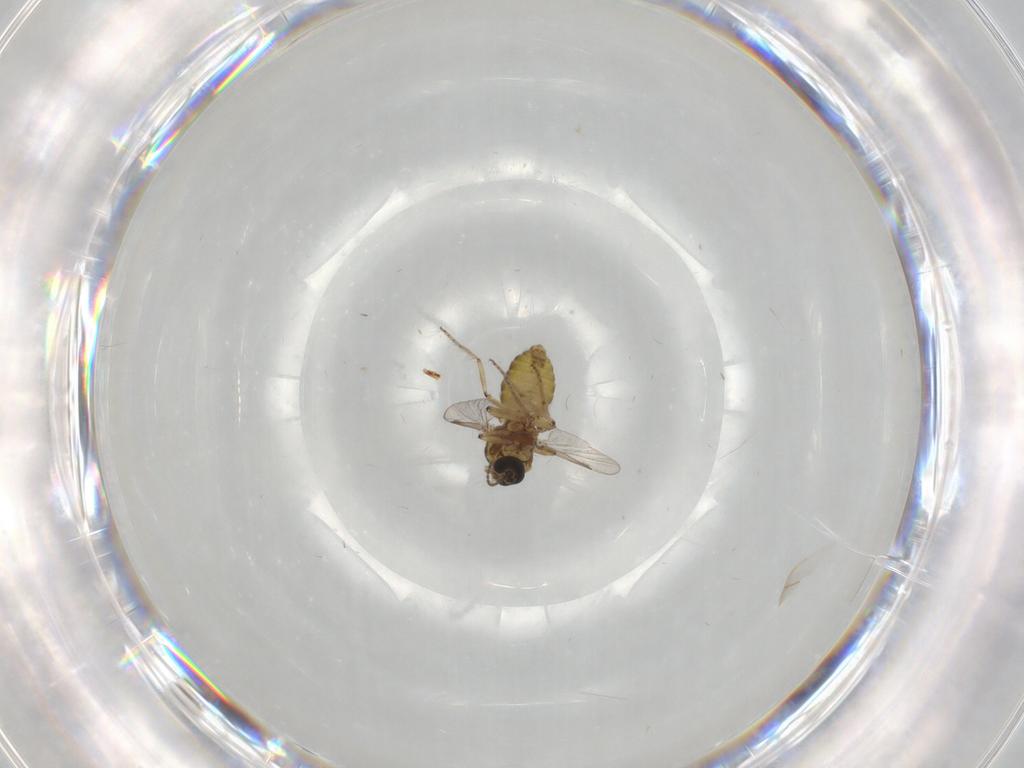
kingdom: Animalia
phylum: Arthropoda
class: Insecta
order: Diptera
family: Ceratopogonidae
